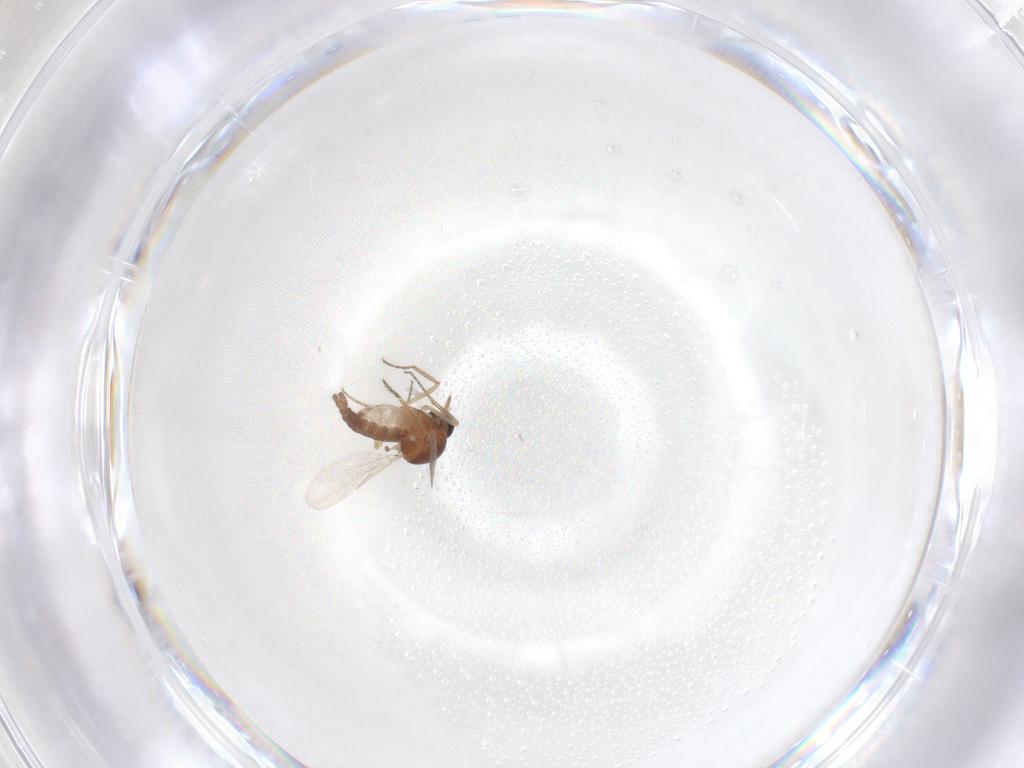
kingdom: Animalia
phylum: Arthropoda
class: Insecta
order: Diptera
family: Ceratopogonidae
